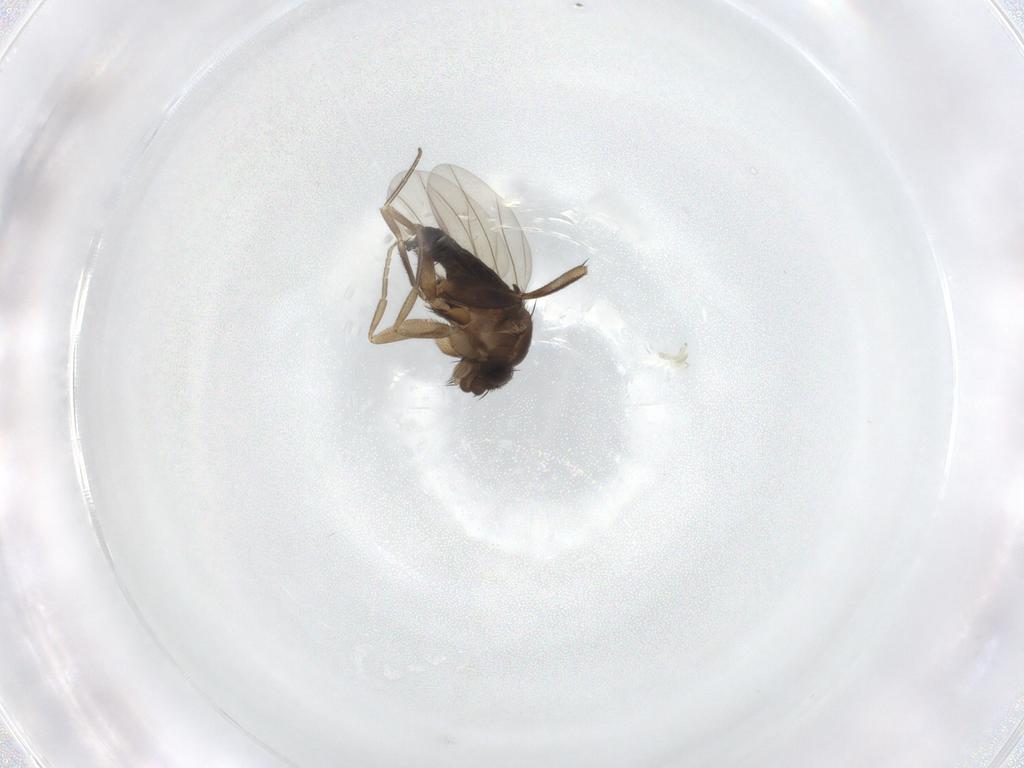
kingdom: Animalia
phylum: Arthropoda
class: Insecta
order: Diptera
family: Phoridae
